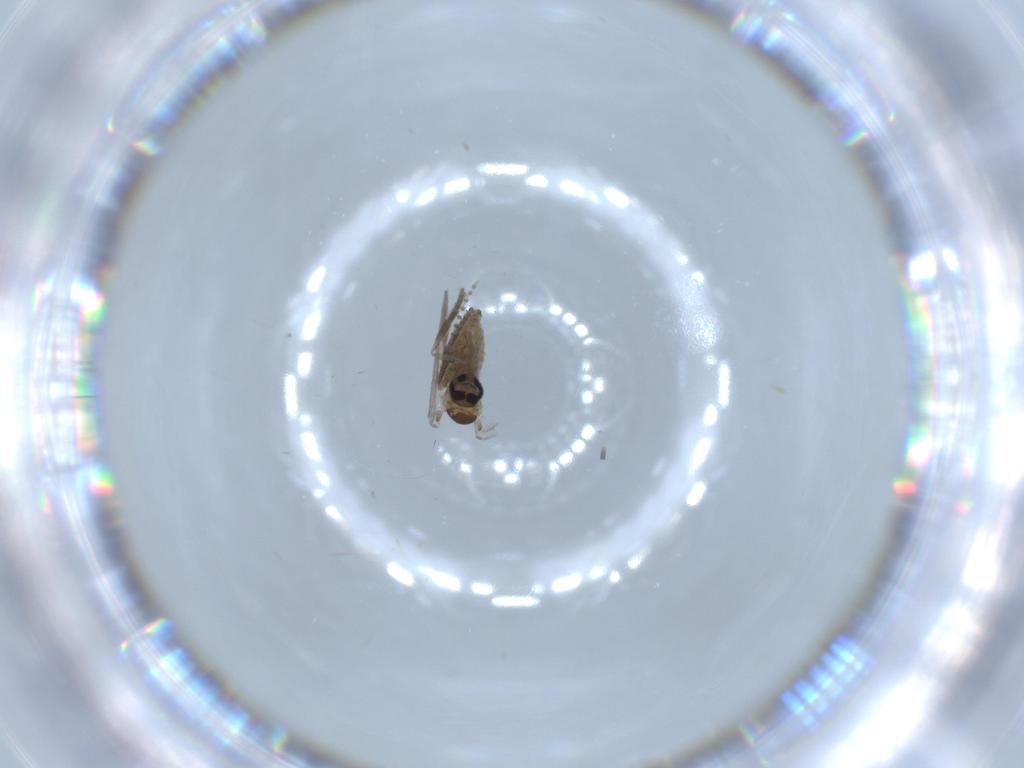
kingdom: Animalia
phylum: Arthropoda
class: Insecta
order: Diptera
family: Psychodidae
